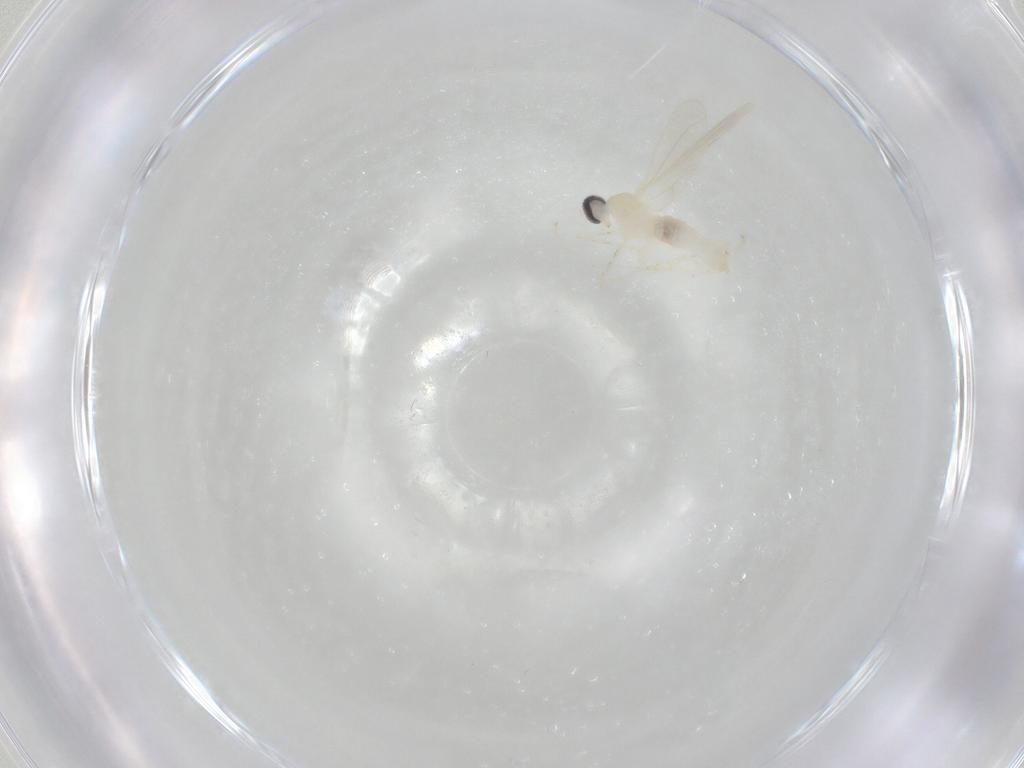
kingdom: Animalia
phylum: Arthropoda
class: Insecta
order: Diptera
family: Cecidomyiidae
